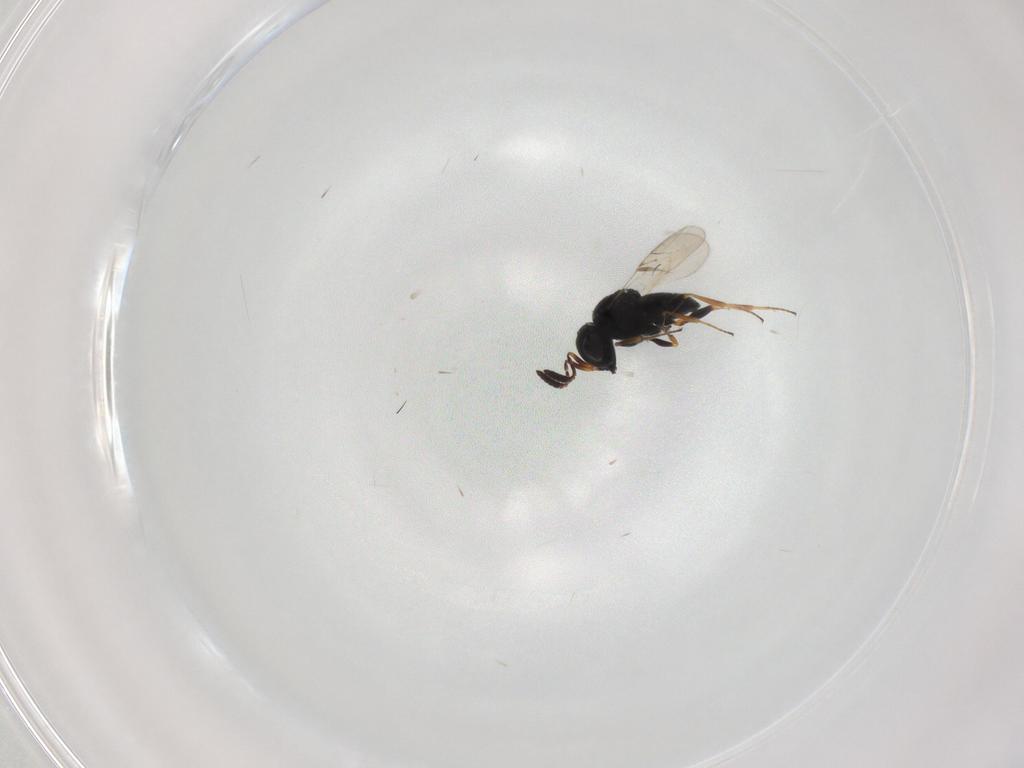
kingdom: Animalia
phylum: Arthropoda
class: Insecta
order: Coleoptera
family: Curculionidae
